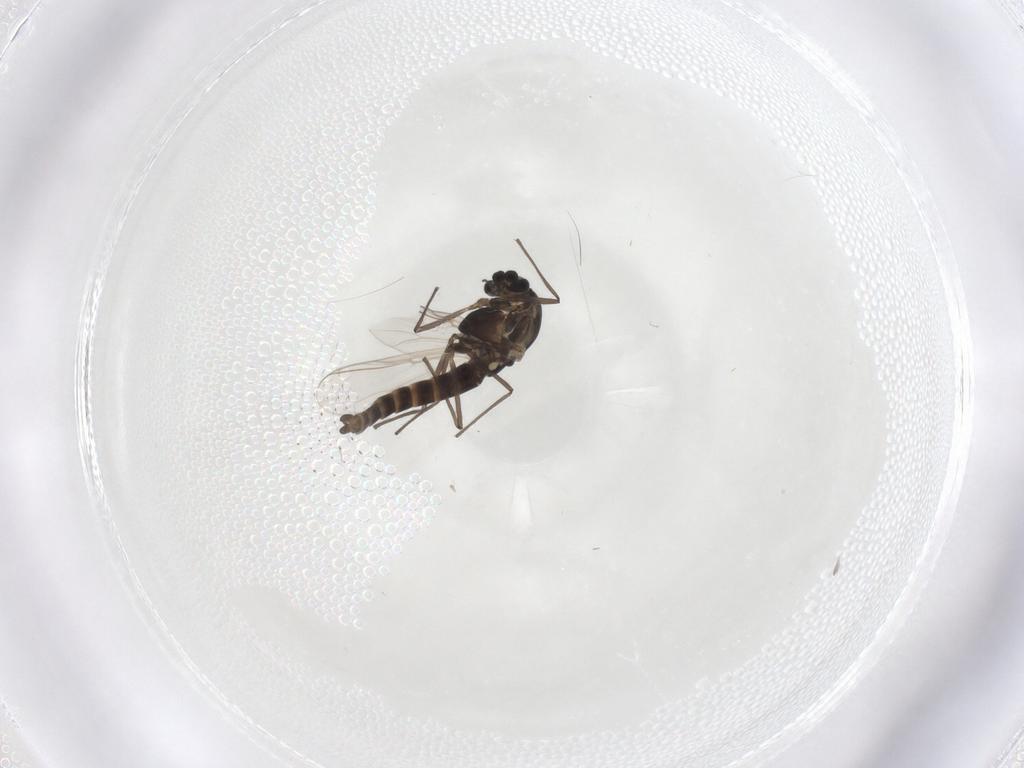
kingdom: Animalia
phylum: Arthropoda
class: Insecta
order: Diptera
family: Chironomidae
